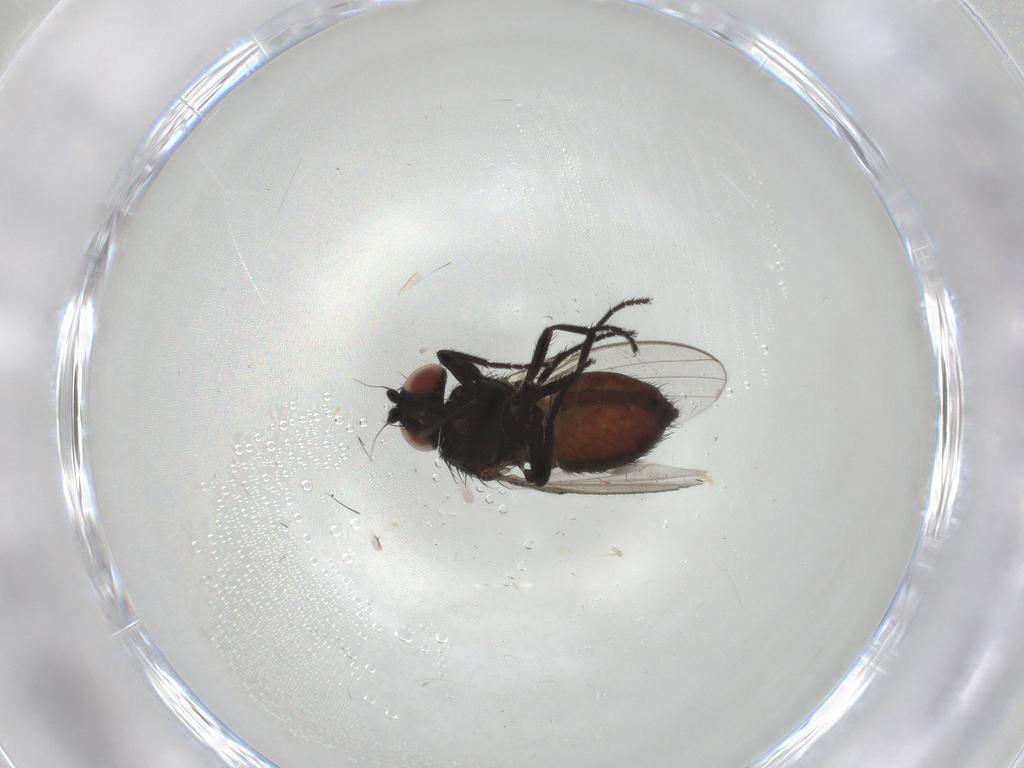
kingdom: Animalia
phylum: Arthropoda
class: Insecta
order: Diptera
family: Milichiidae
